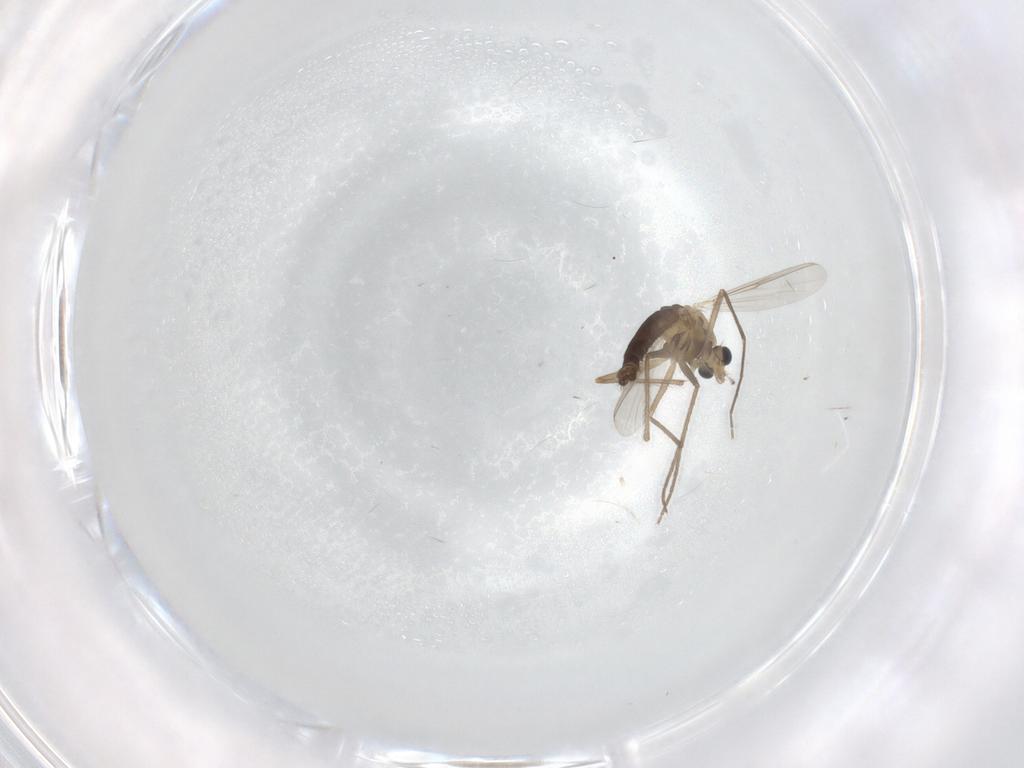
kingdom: Animalia
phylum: Arthropoda
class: Insecta
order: Diptera
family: Chironomidae
